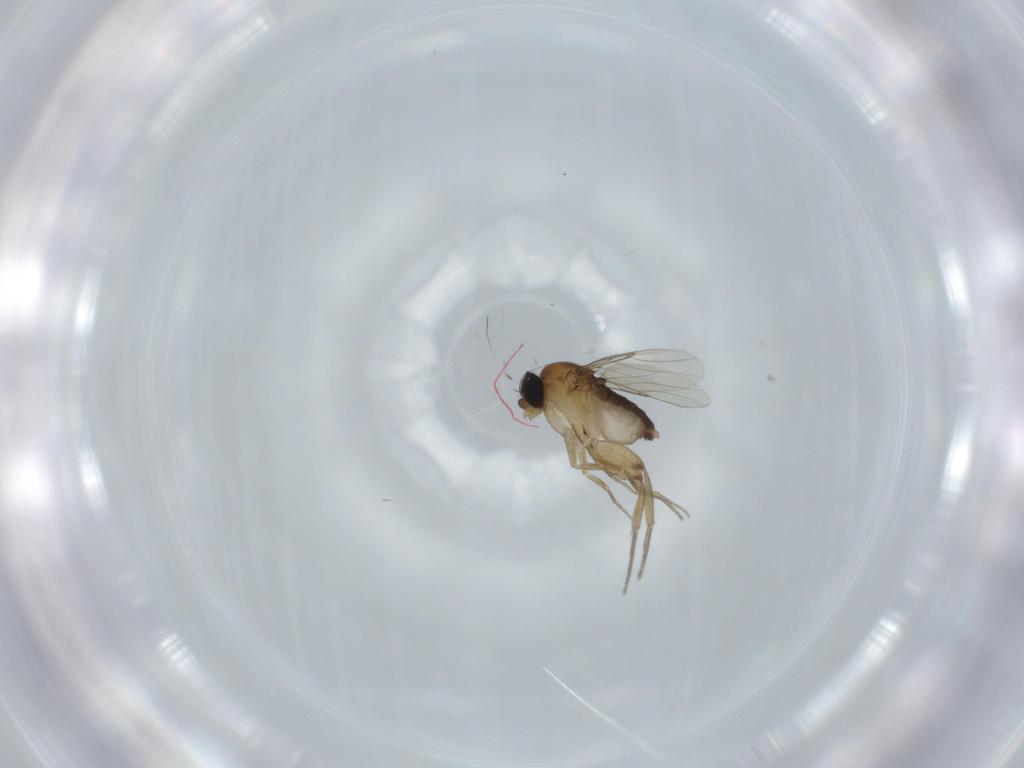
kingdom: Animalia
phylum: Arthropoda
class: Insecta
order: Diptera
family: Phoridae
